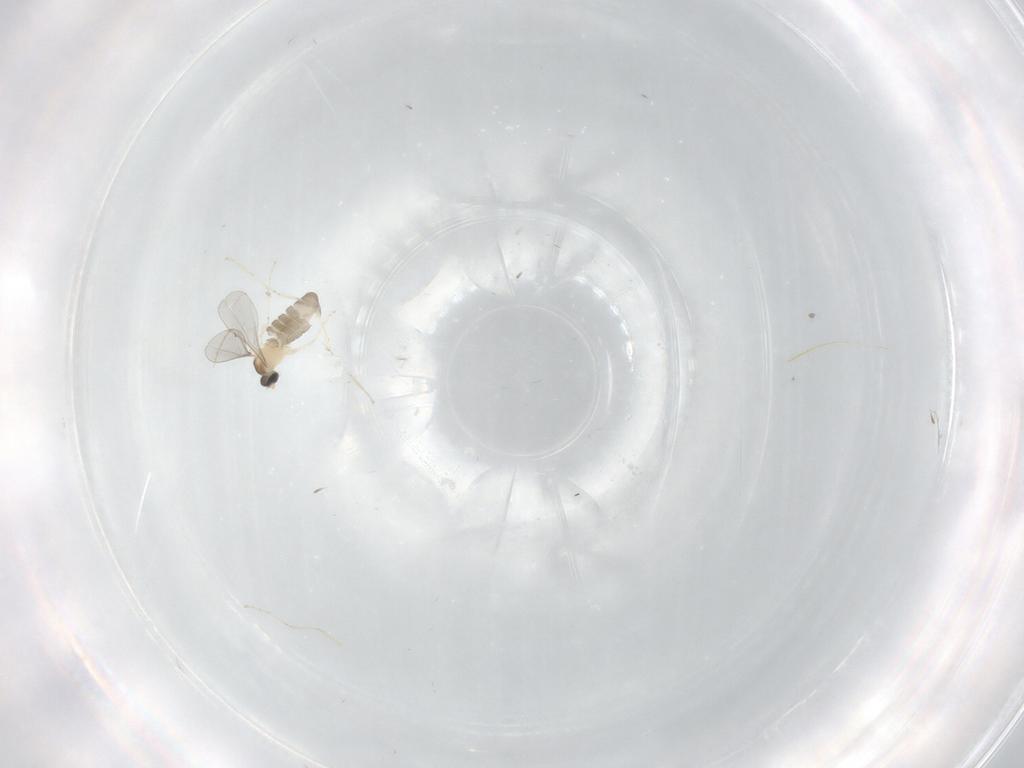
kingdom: Animalia
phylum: Arthropoda
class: Insecta
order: Diptera
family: Cecidomyiidae
